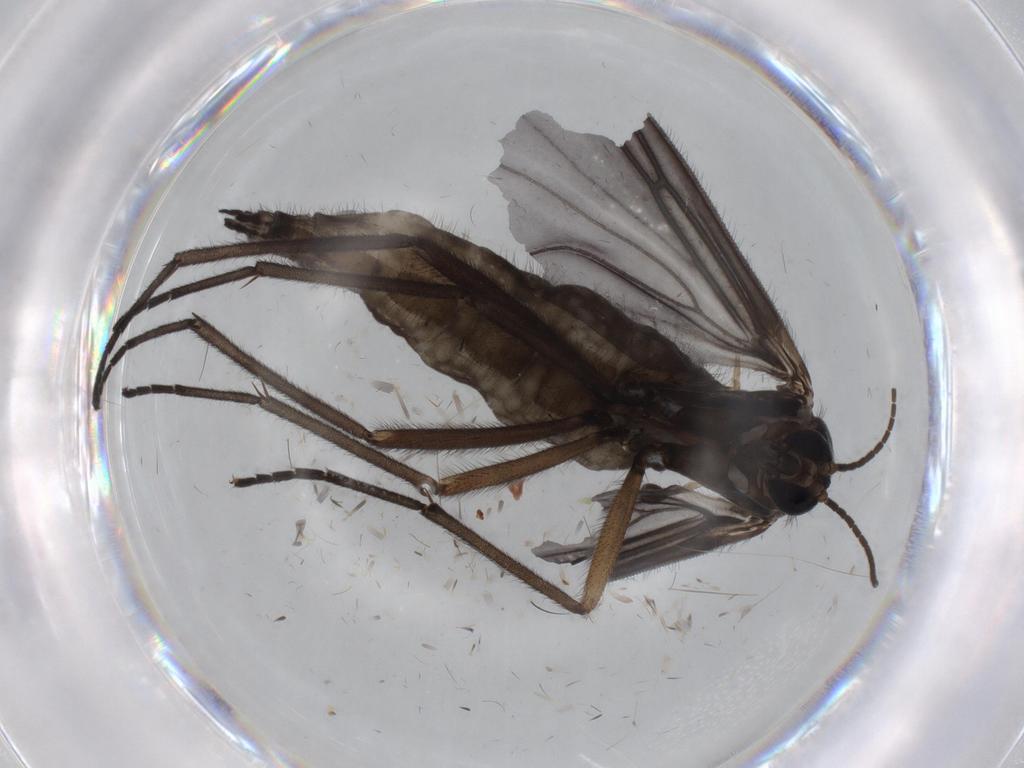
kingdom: Animalia
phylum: Arthropoda
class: Insecta
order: Diptera
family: Sciaridae
